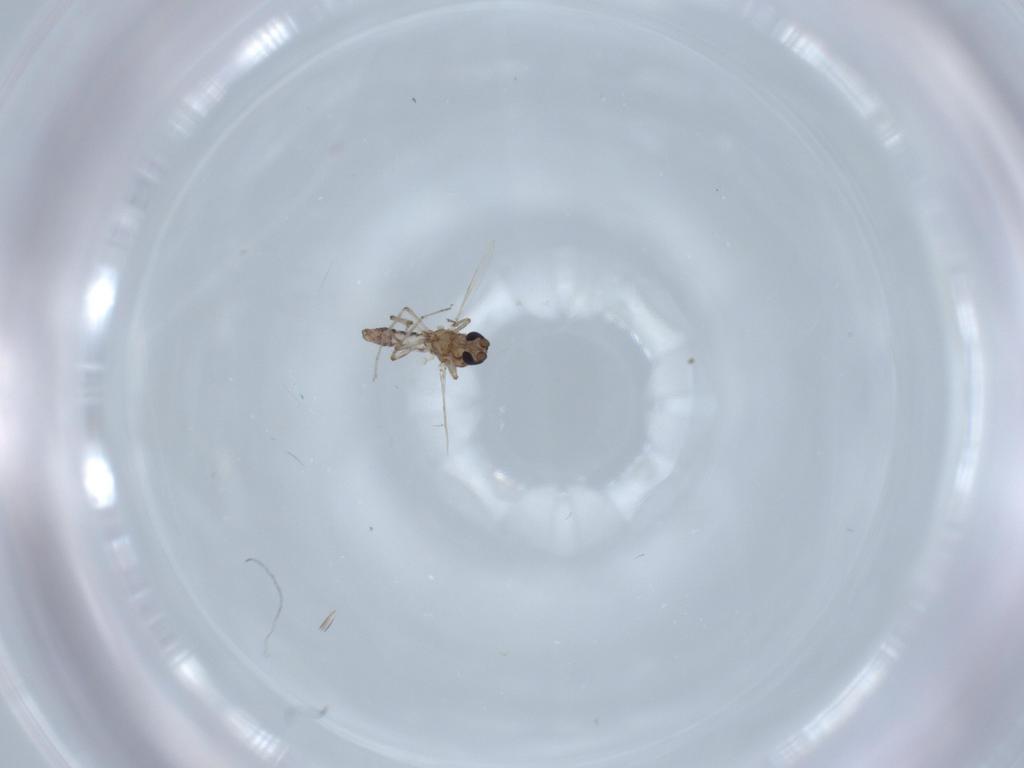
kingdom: Animalia
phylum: Arthropoda
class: Insecta
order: Diptera
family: Ceratopogonidae
